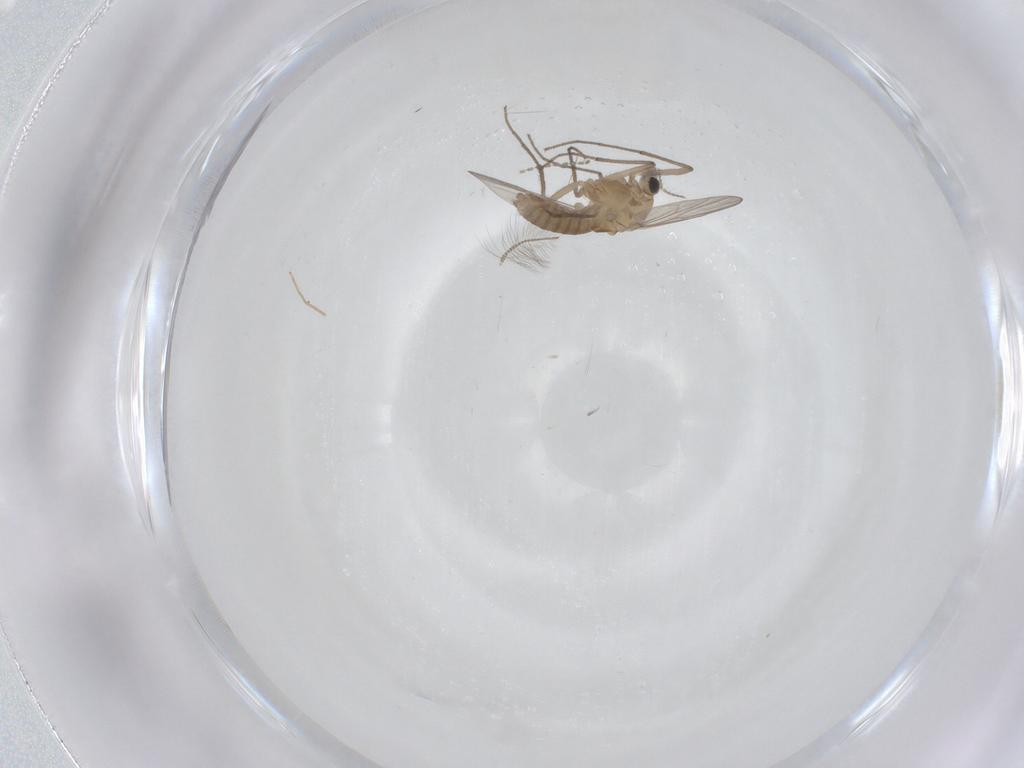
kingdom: Animalia
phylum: Arthropoda
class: Insecta
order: Diptera
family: Chironomidae
